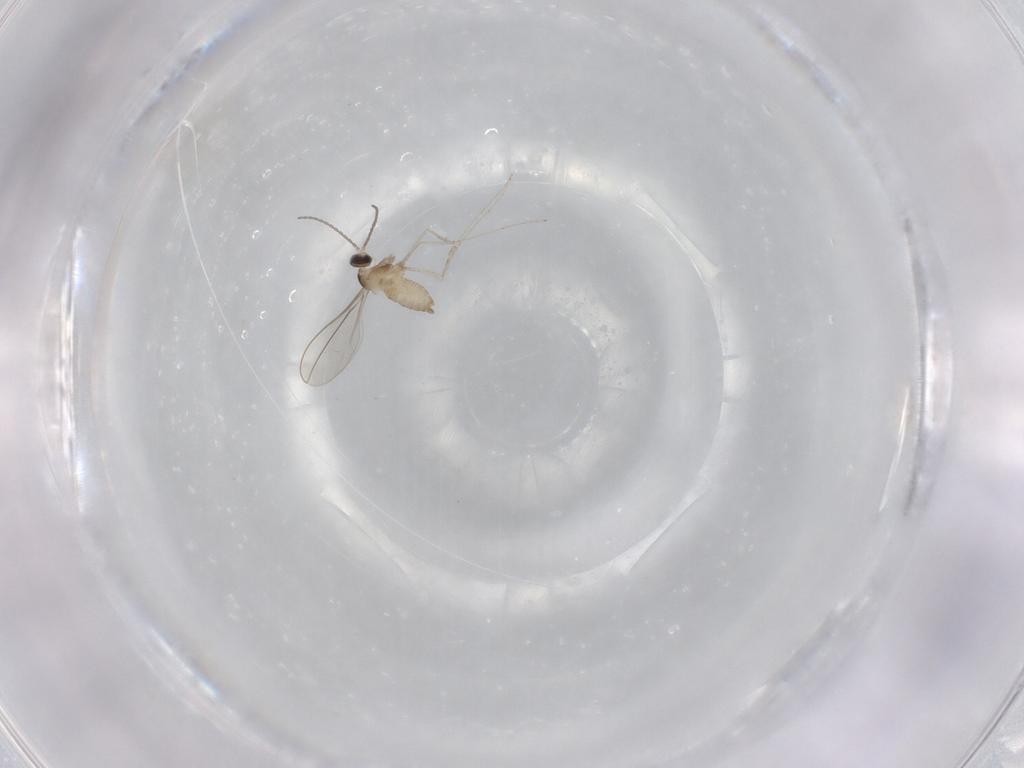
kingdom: Animalia
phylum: Arthropoda
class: Insecta
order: Diptera
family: Cecidomyiidae
